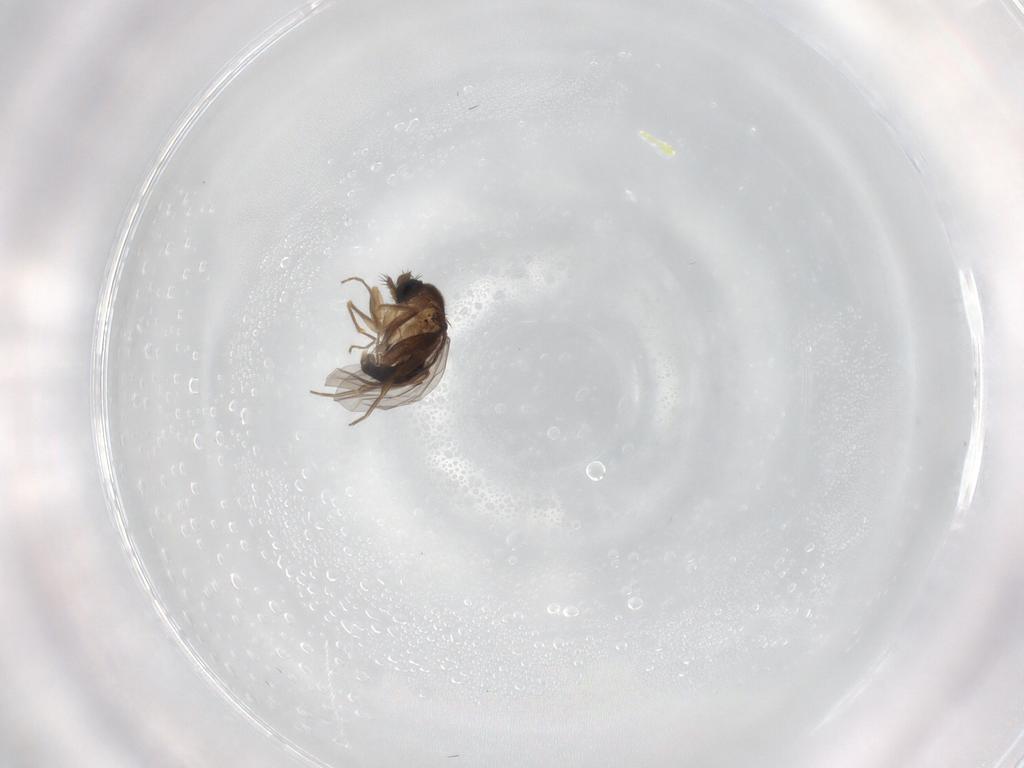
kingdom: Animalia
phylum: Arthropoda
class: Insecta
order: Diptera
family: Phoridae
